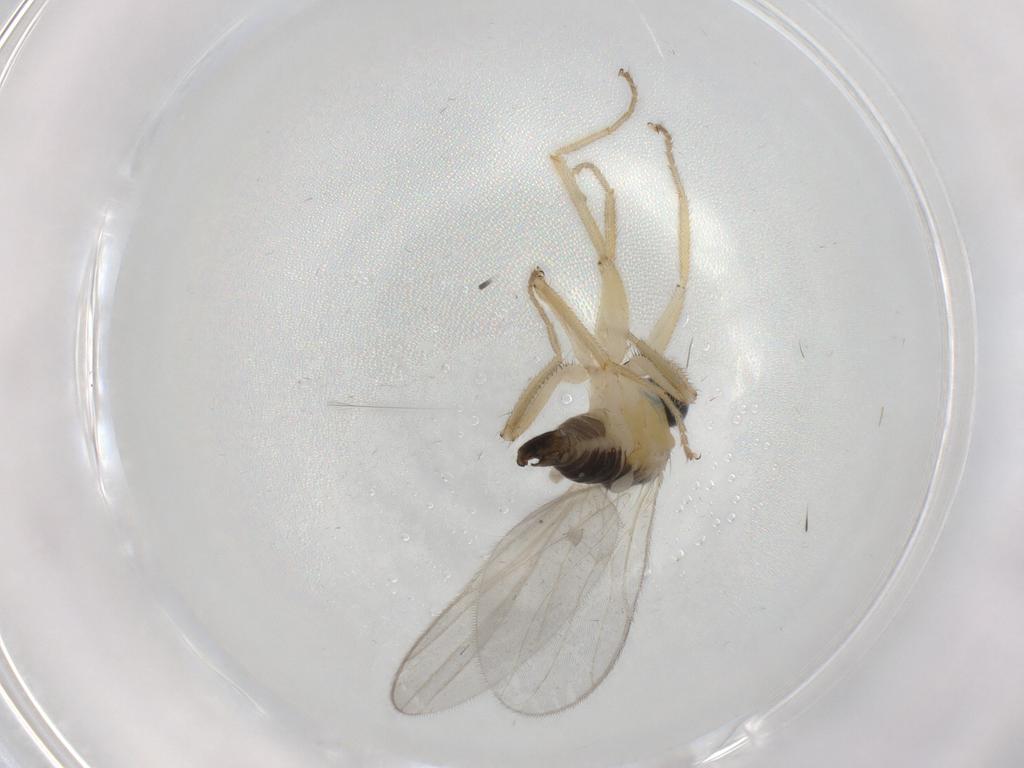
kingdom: Animalia
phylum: Arthropoda
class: Insecta
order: Diptera
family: Hybotidae
